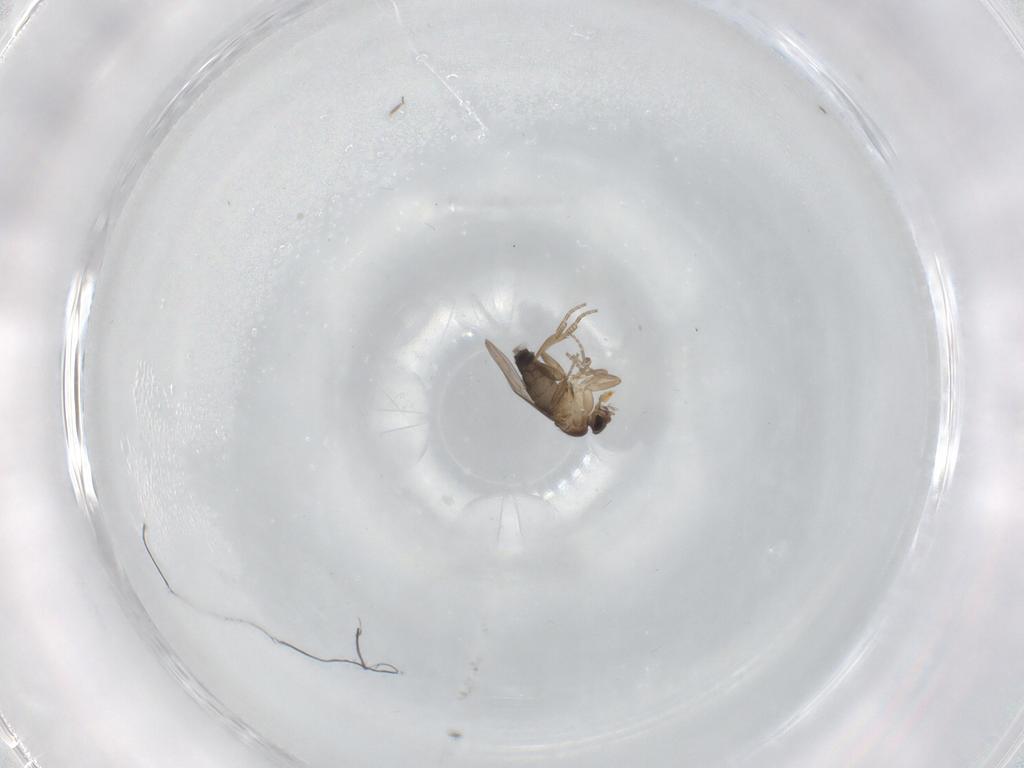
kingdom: Animalia
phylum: Arthropoda
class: Insecta
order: Diptera
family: Phoridae
